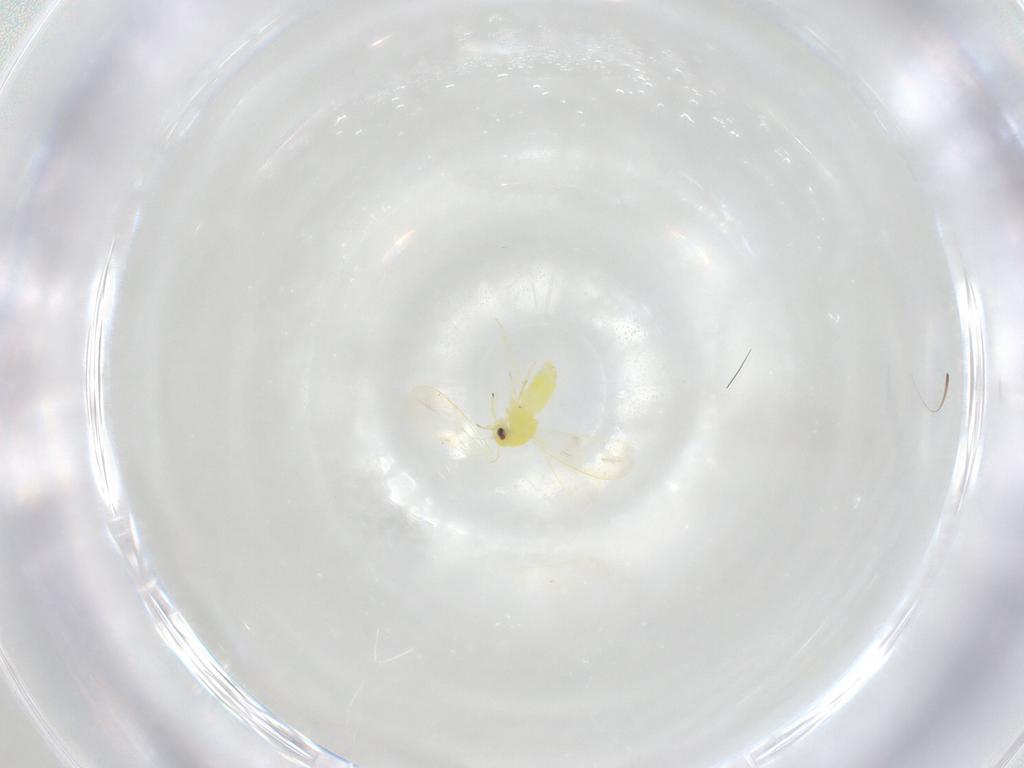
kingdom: Animalia
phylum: Arthropoda
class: Insecta
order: Hemiptera
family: Aleyrodidae
